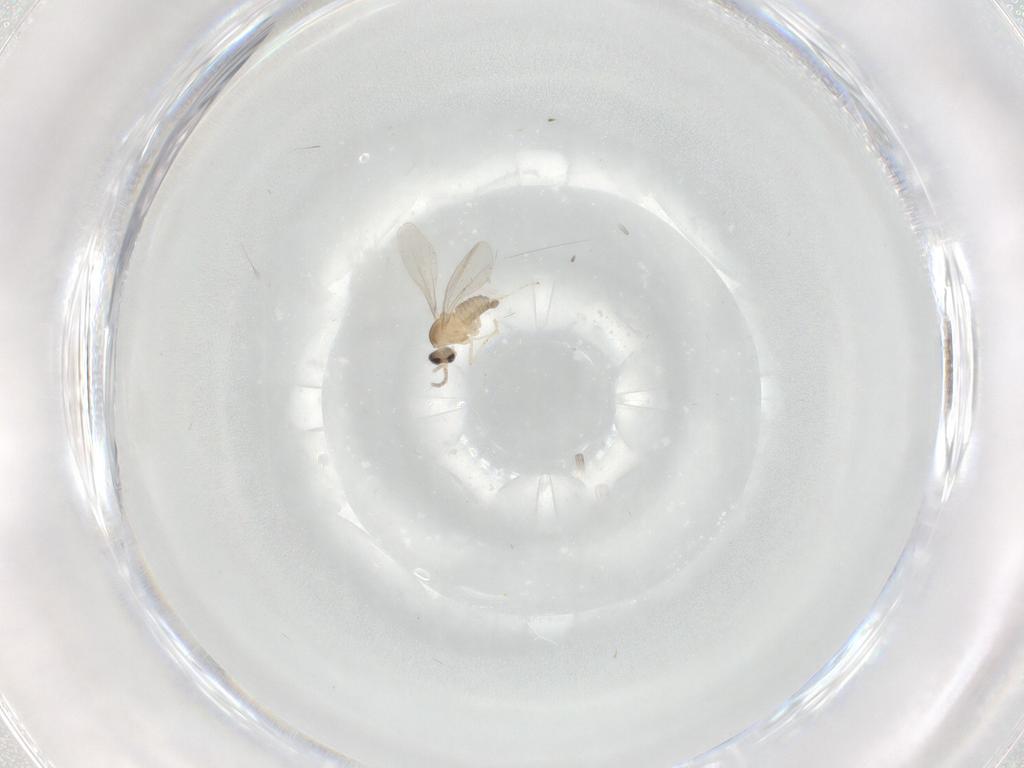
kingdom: Animalia
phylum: Arthropoda
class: Insecta
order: Diptera
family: Cecidomyiidae
